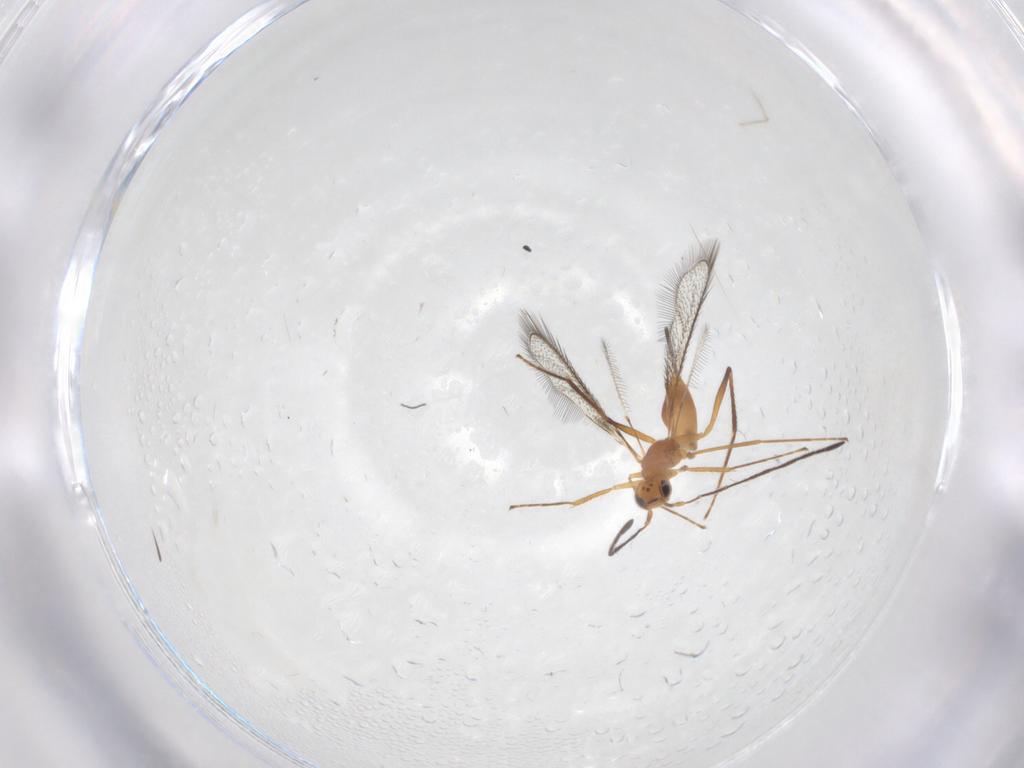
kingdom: Animalia
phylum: Arthropoda
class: Insecta
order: Hymenoptera
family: Mymaridae
